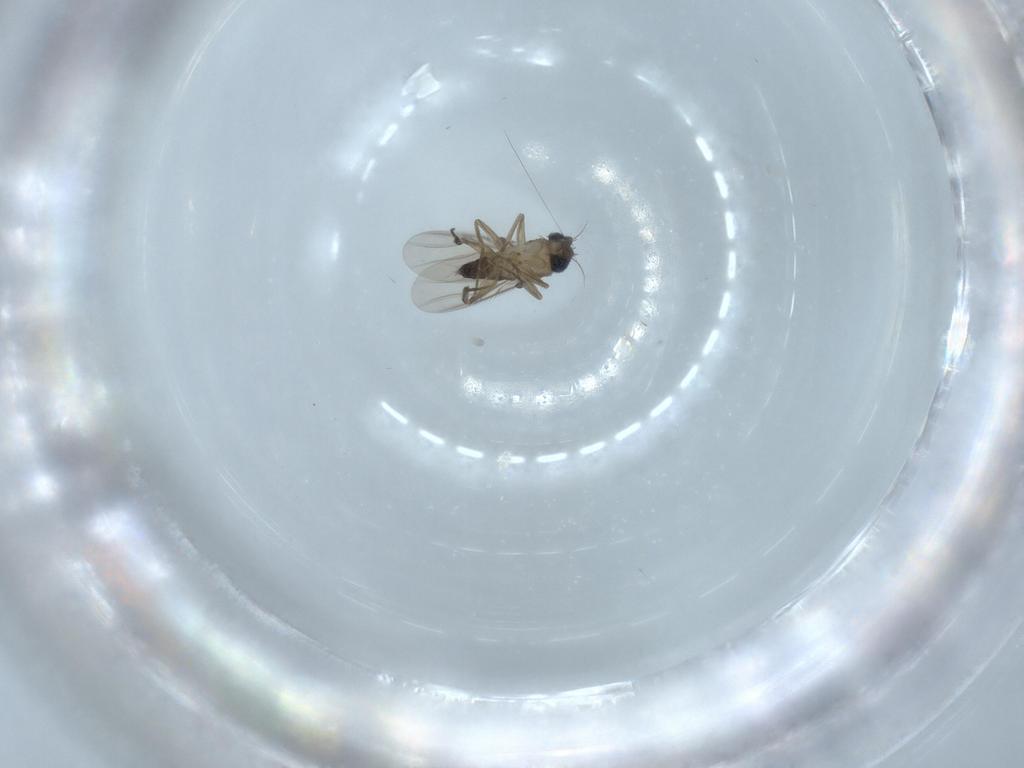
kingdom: Animalia
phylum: Arthropoda
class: Insecta
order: Diptera
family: Phoridae
